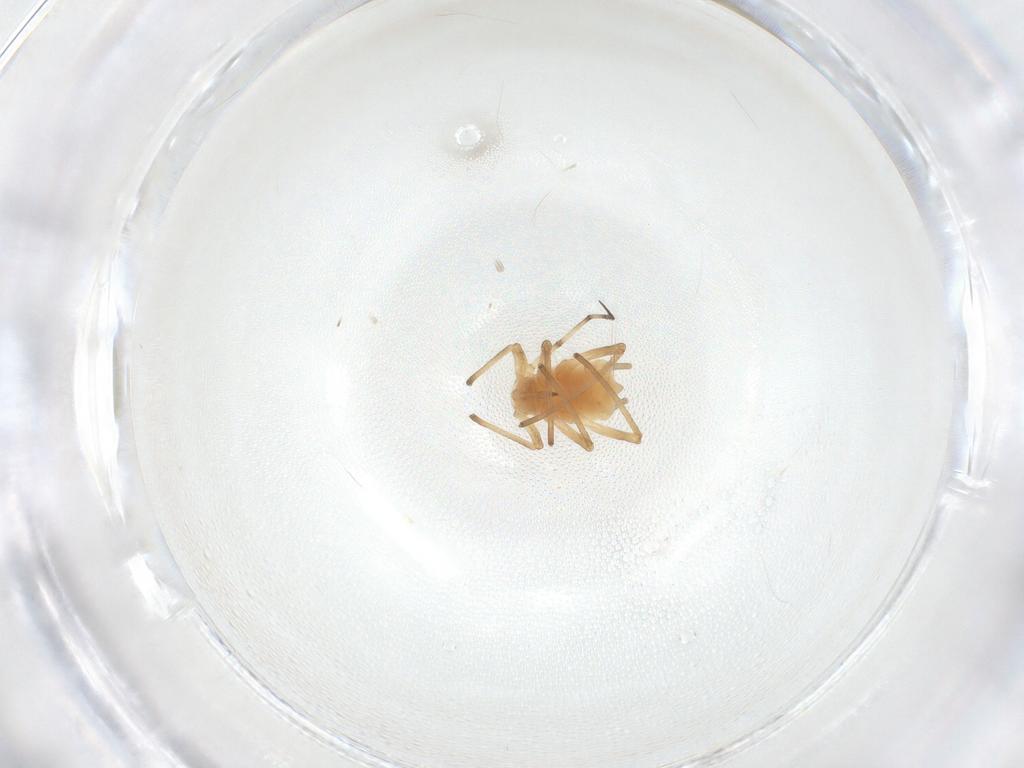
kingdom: Animalia
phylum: Arthropoda
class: Insecta
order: Hemiptera
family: Aphididae
